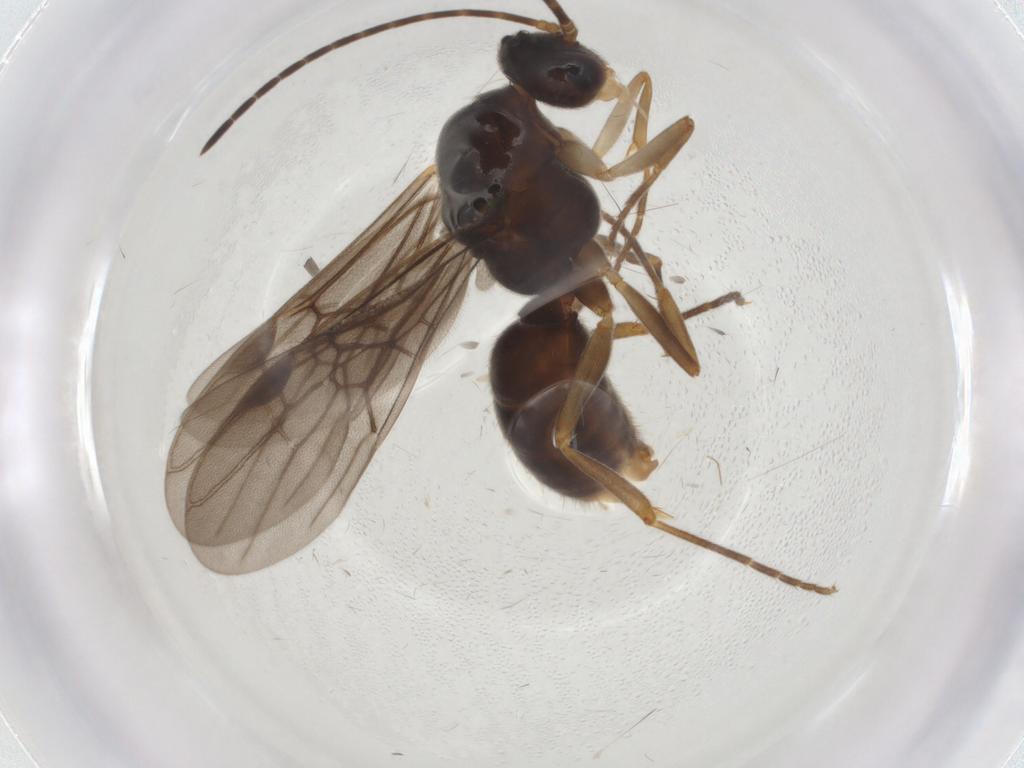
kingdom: Animalia
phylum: Arthropoda
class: Insecta
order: Hymenoptera
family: Formicidae
